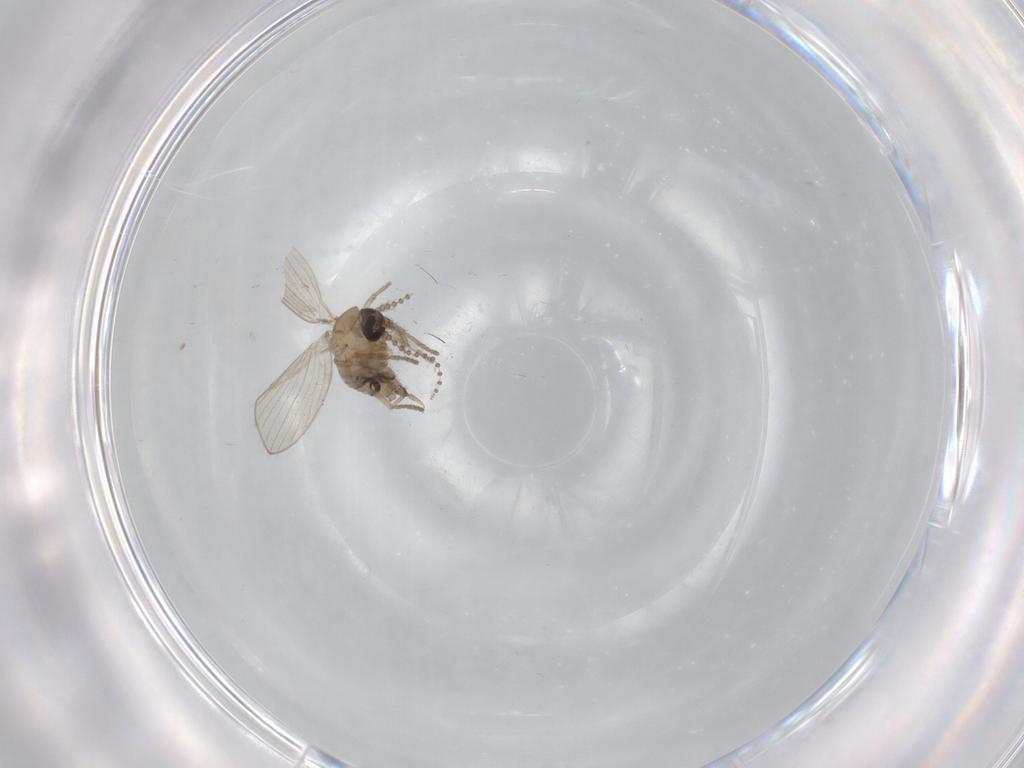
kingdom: Animalia
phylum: Arthropoda
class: Insecta
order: Diptera
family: Psychodidae
